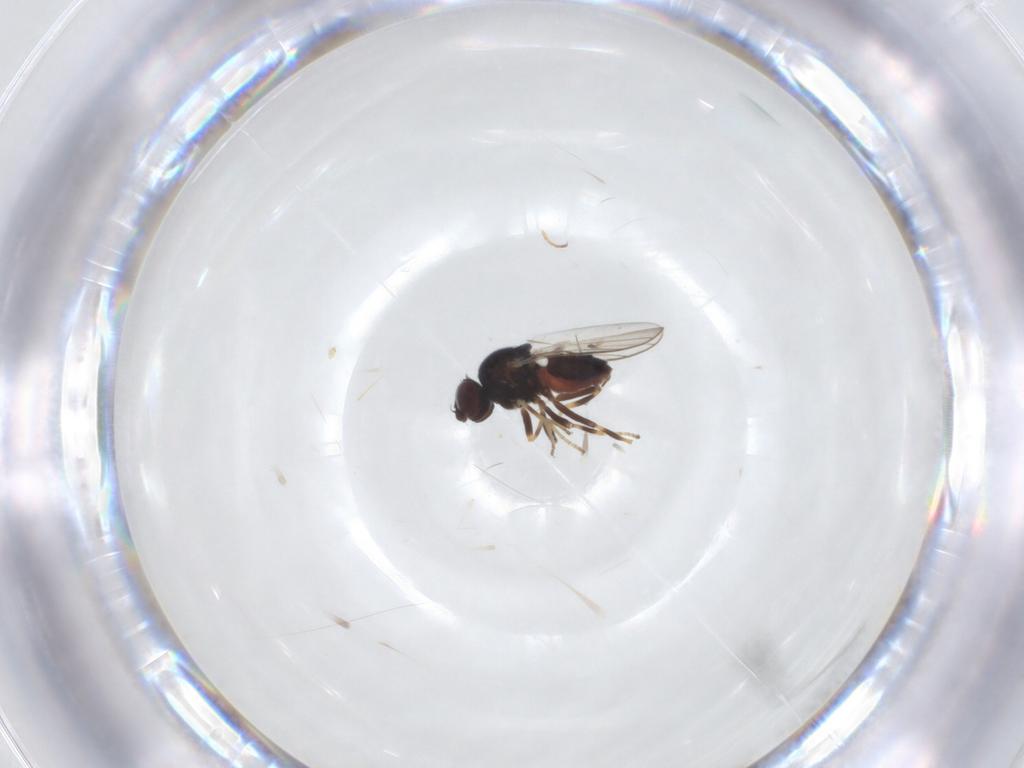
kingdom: Animalia
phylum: Arthropoda
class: Insecta
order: Diptera
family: Chloropidae
